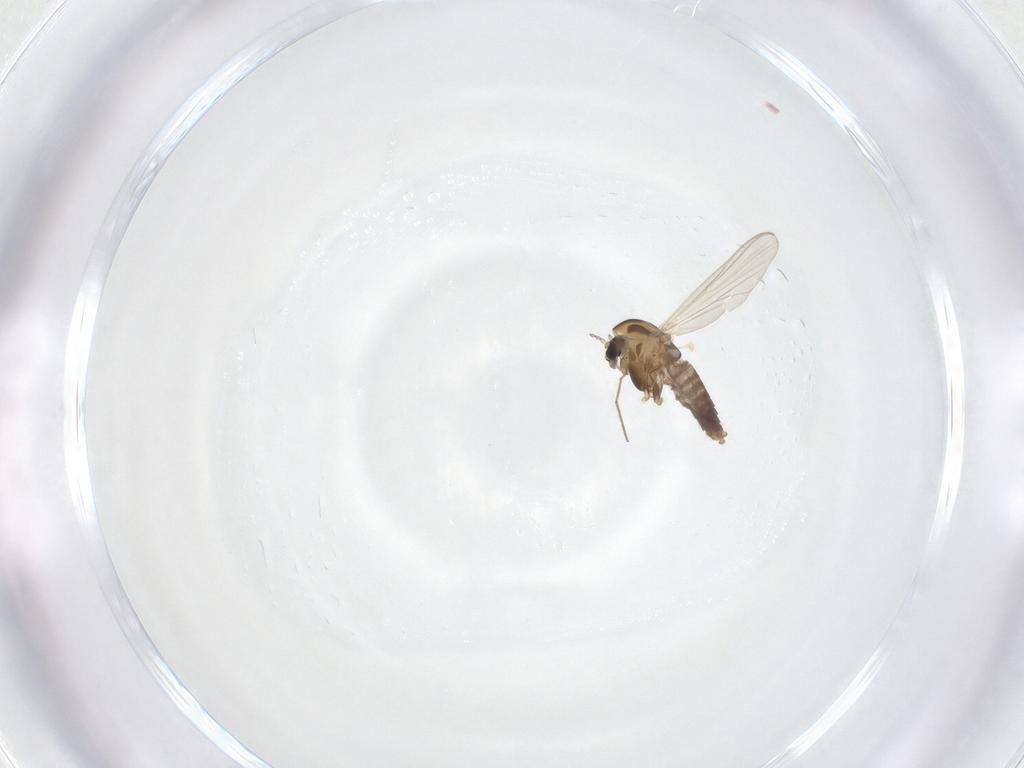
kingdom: Animalia
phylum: Arthropoda
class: Insecta
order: Diptera
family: Chironomidae
